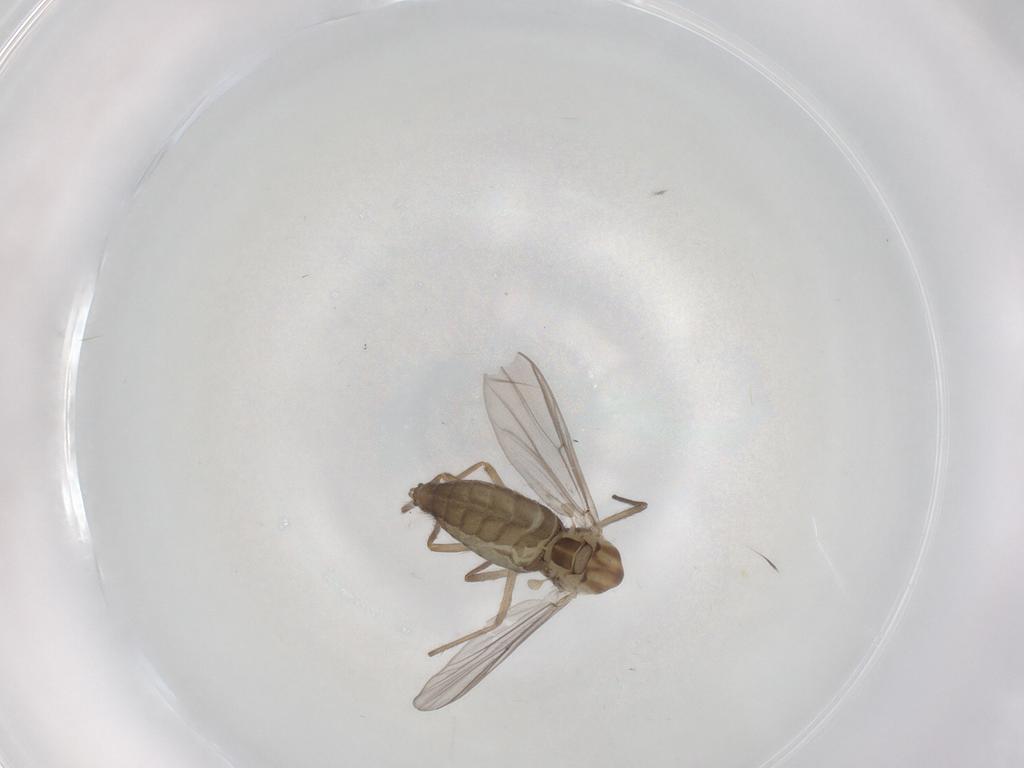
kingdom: Animalia
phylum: Arthropoda
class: Insecta
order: Diptera
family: Chironomidae
